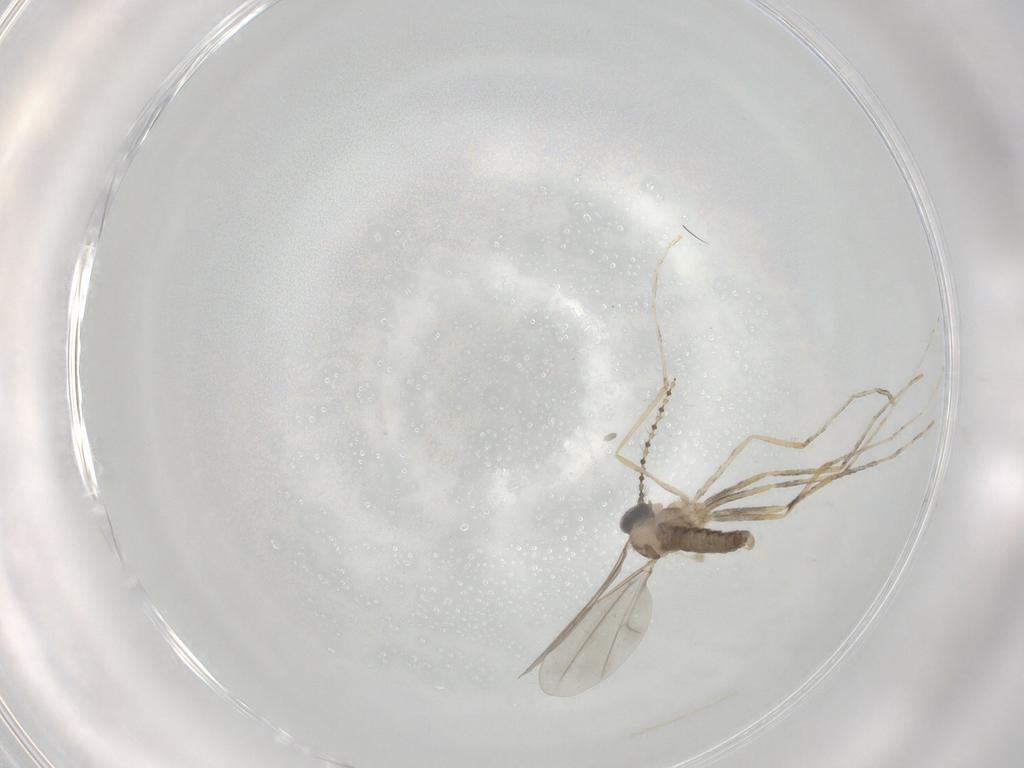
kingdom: Animalia
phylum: Arthropoda
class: Insecta
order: Diptera
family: Cecidomyiidae
